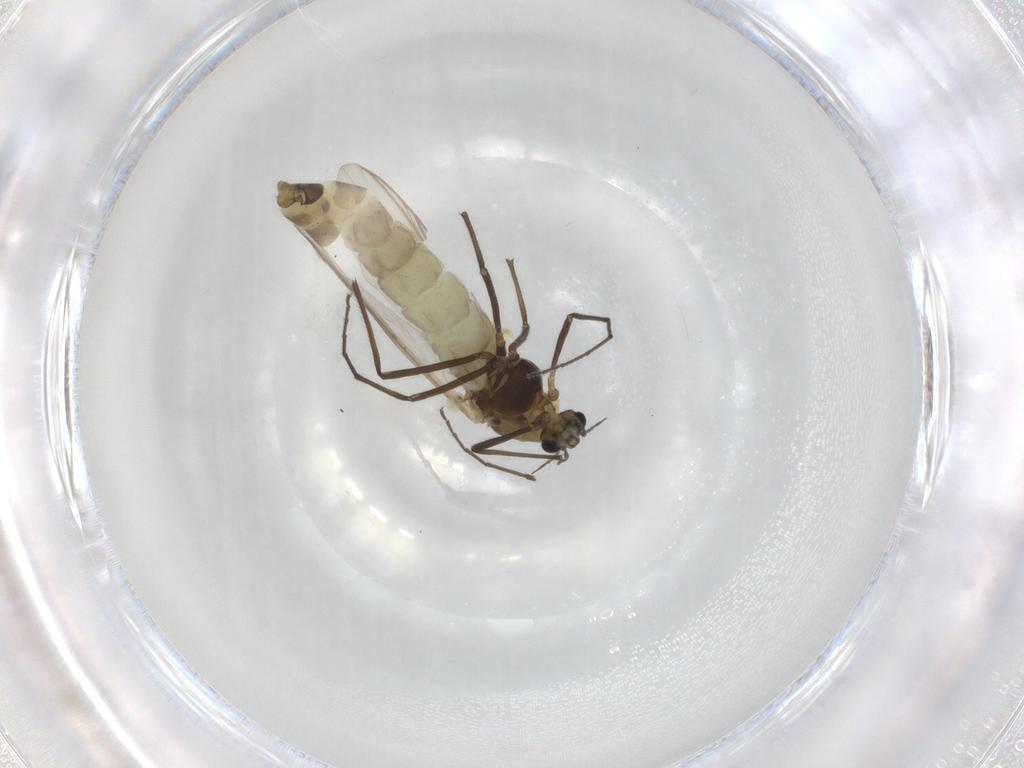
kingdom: Animalia
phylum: Arthropoda
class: Insecta
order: Diptera
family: Chironomidae
